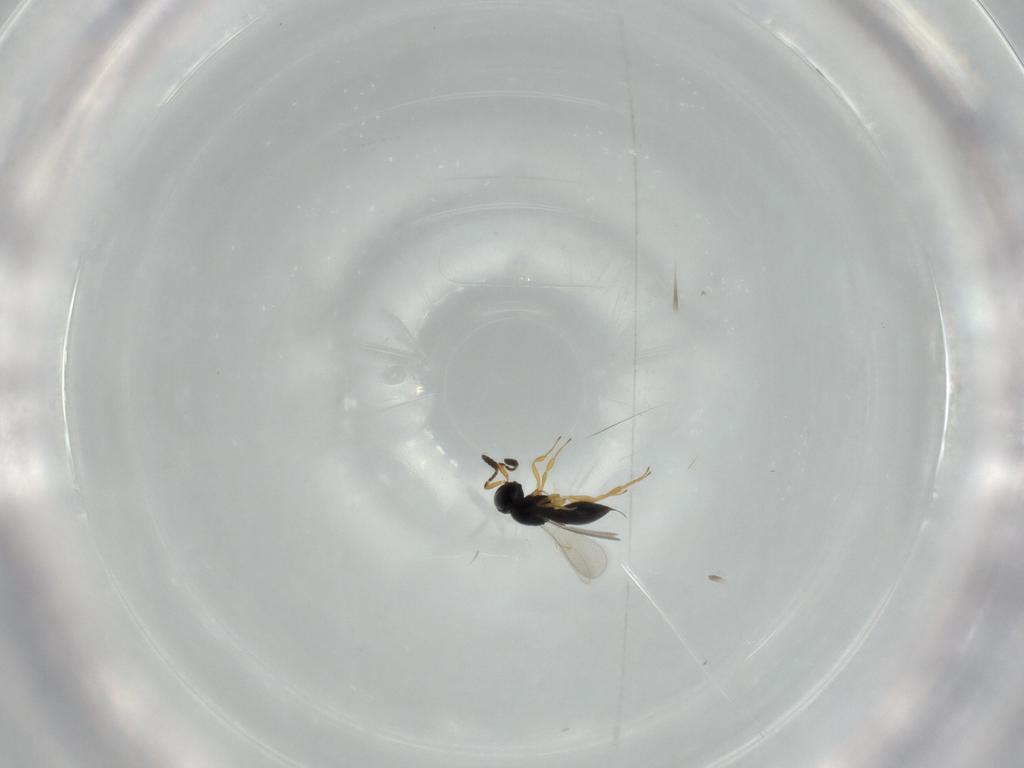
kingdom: Animalia
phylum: Arthropoda
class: Insecta
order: Hymenoptera
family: Scelionidae
